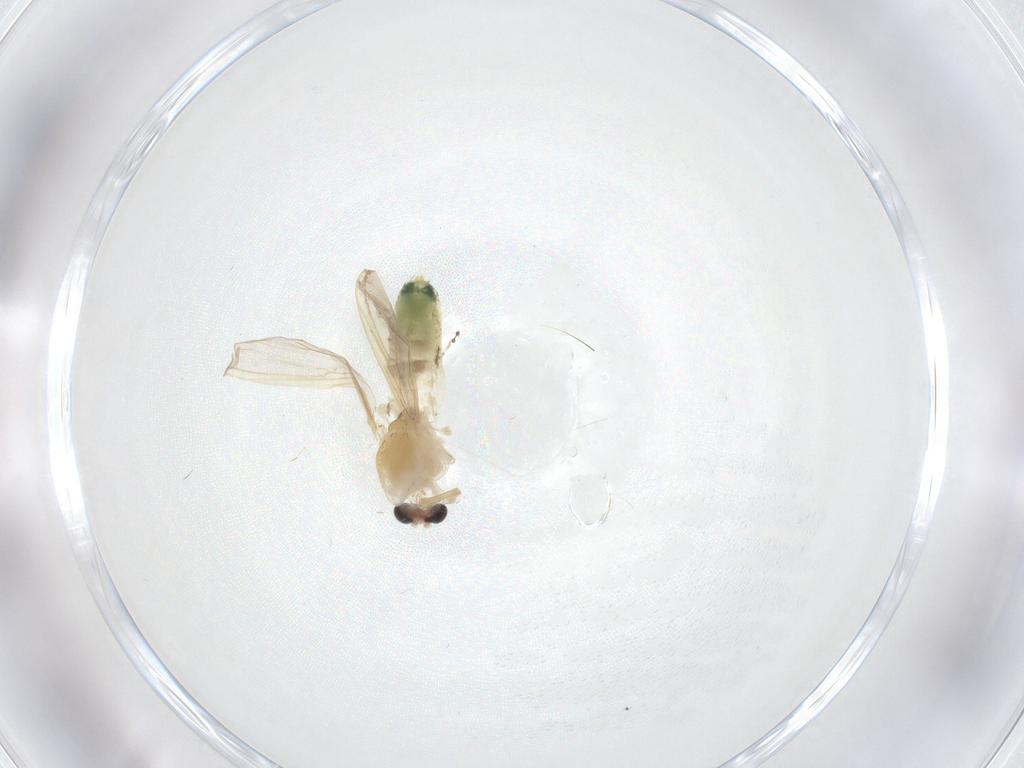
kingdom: Animalia
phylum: Arthropoda
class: Insecta
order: Diptera
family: Chironomidae
